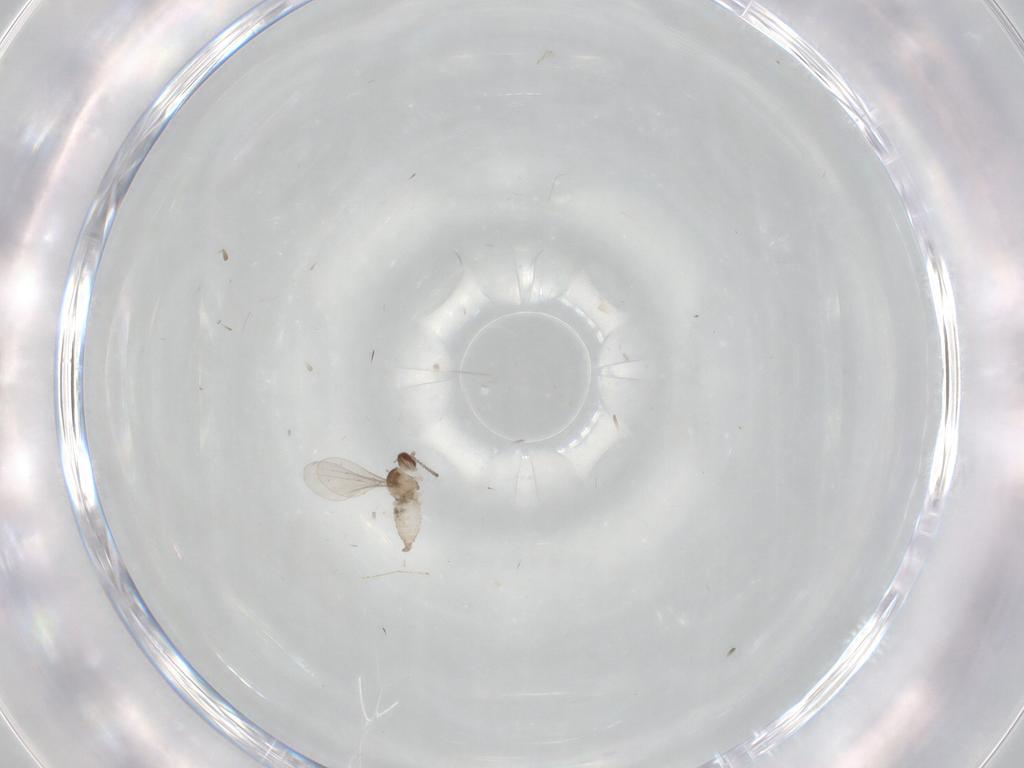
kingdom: Animalia
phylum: Arthropoda
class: Insecta
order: Diptera
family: Cecidomyiidae
